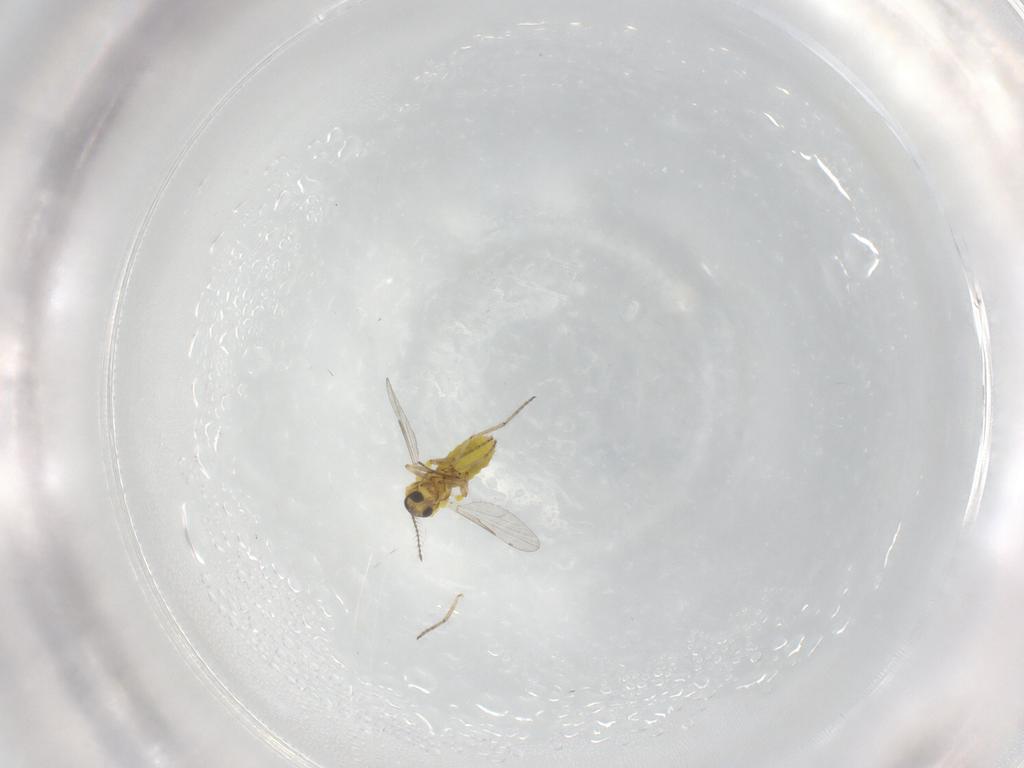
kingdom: Animalia
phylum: Arthropoda
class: Insecta
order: Diptera
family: Ceratopogonidae
